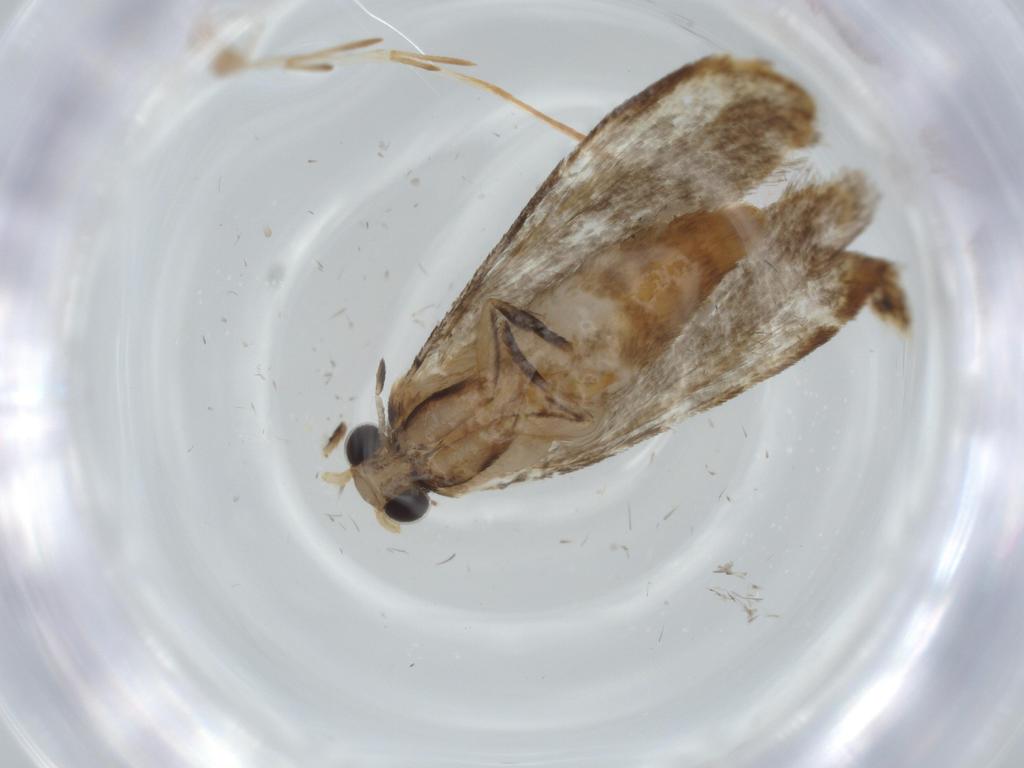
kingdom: Animalia
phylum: Arthropoda
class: Insecta
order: Lepidoptera
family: Tineidae
